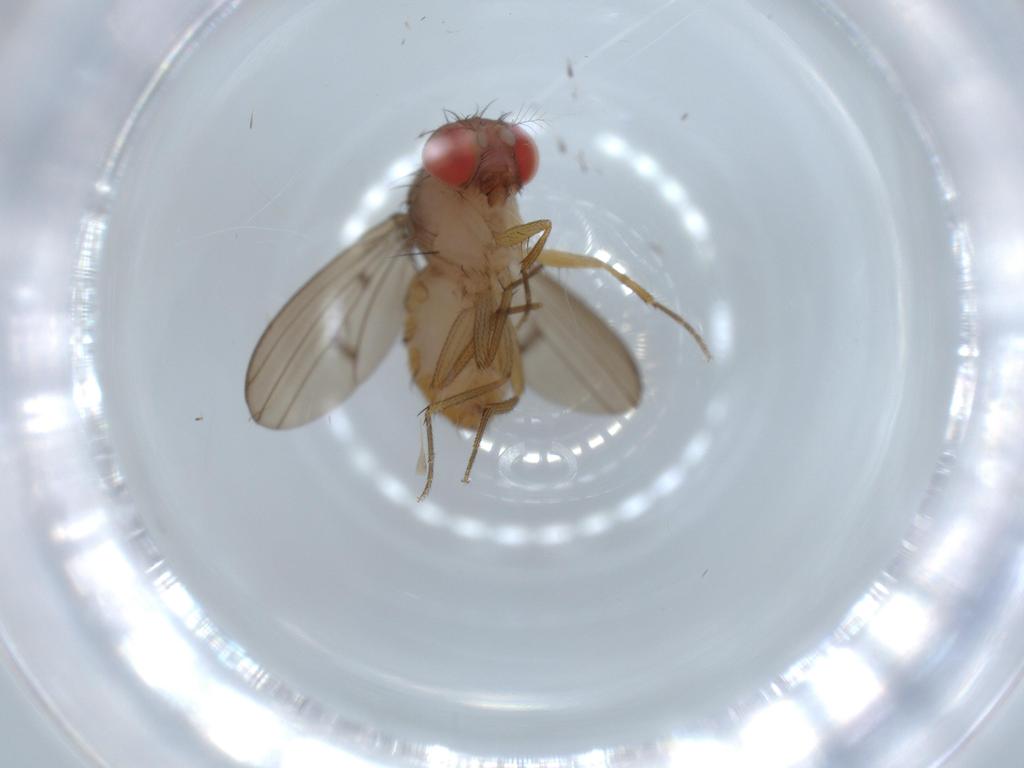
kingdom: Animalia
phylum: Arthropoda
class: Insecta
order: Diptera
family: Drosophilidae
